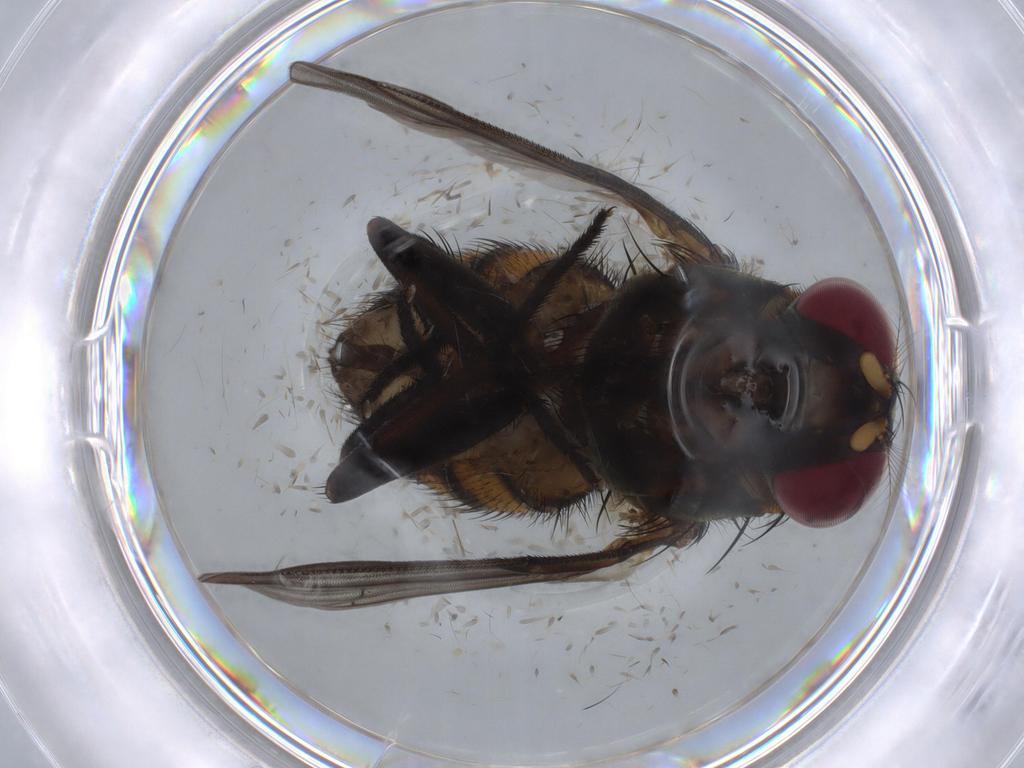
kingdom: Animalia
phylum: Arthropoda
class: Insecta
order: Diptera
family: Muscidae
